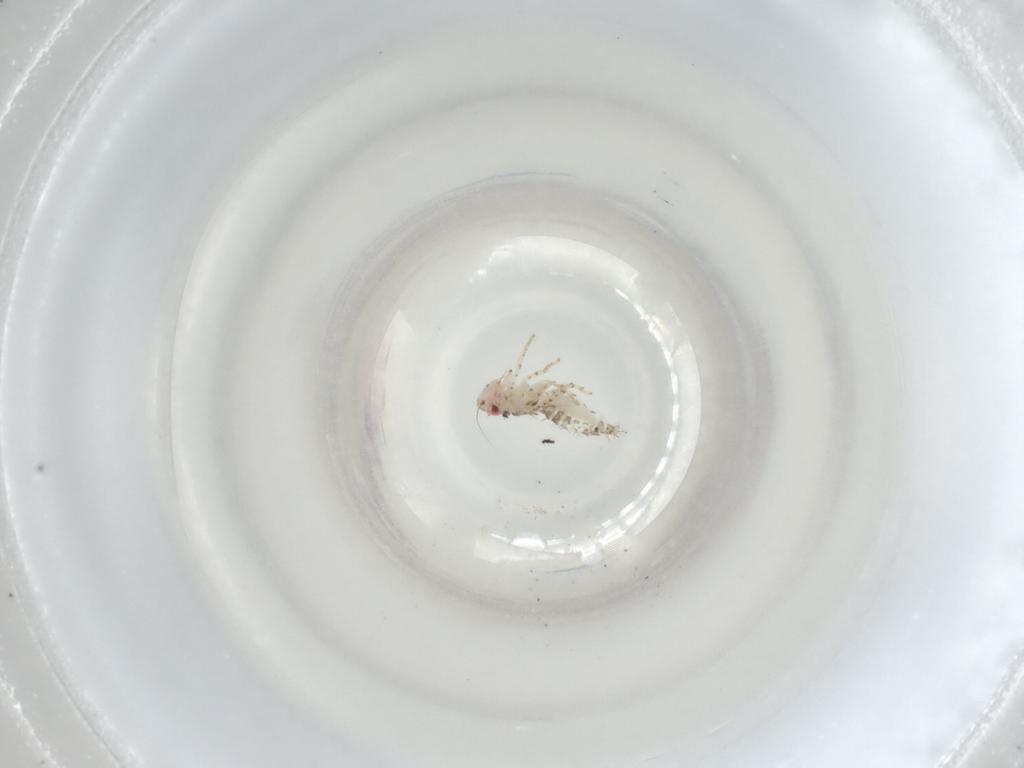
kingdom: Animalia
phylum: Arthropoda
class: Insecta
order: Hemiptera
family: Cicadellidae
